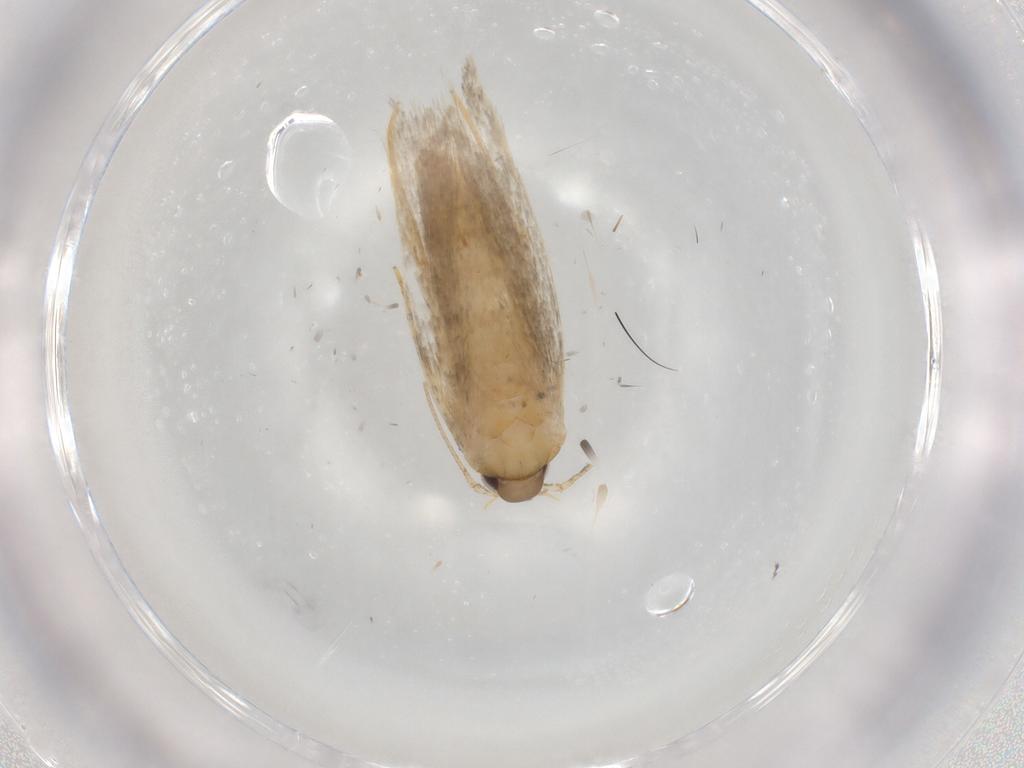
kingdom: Animalia
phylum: Arthropoda
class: Insecta
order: Lepidoptera
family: Autostichidae
